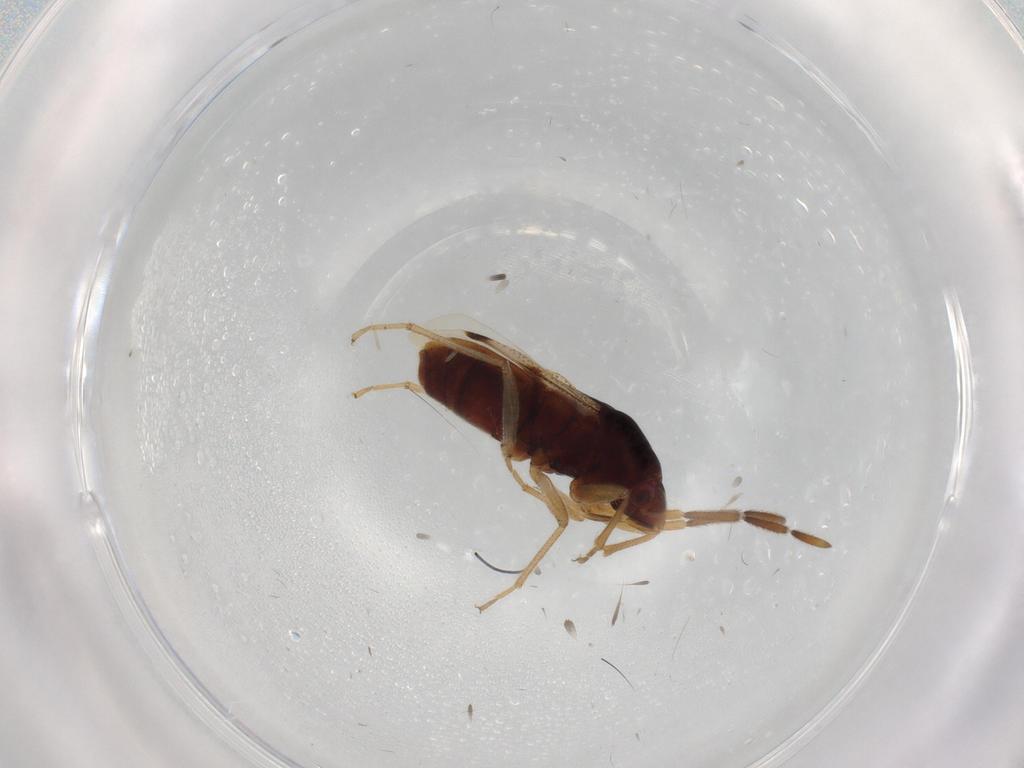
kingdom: Animalia
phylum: Arthropoda
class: Insecta
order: Hemiptera
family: Rhyparochromidae
